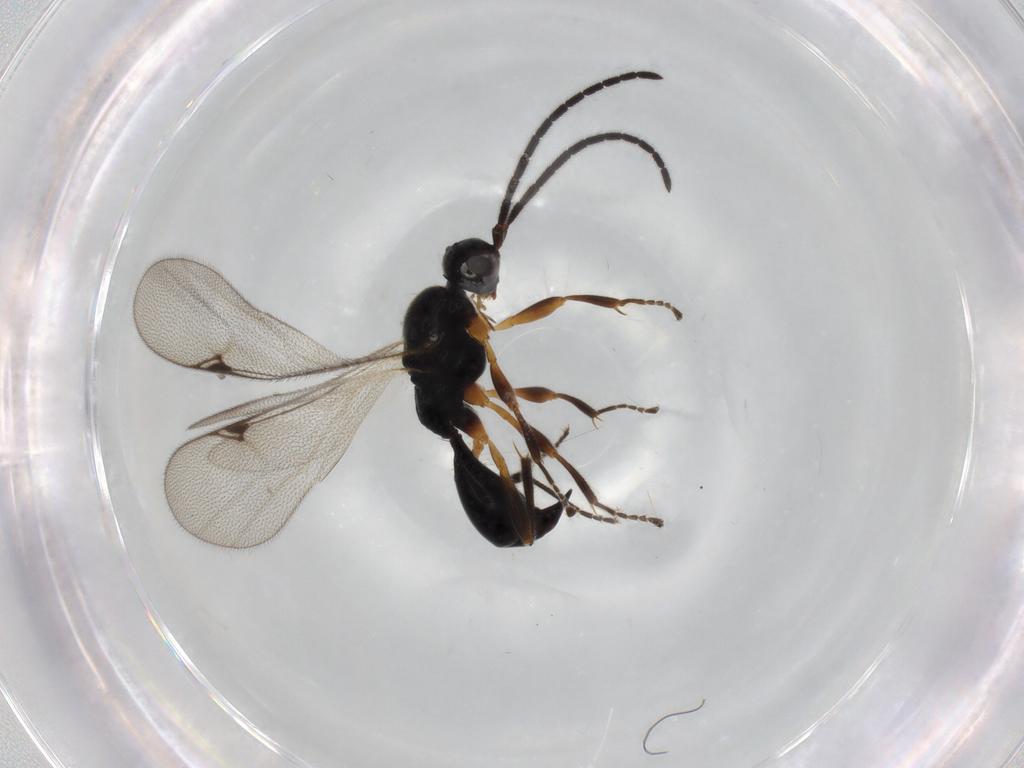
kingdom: Animalia
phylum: Arthropoda
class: Insecta
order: Hymenoptera
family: Proctotrupidae
